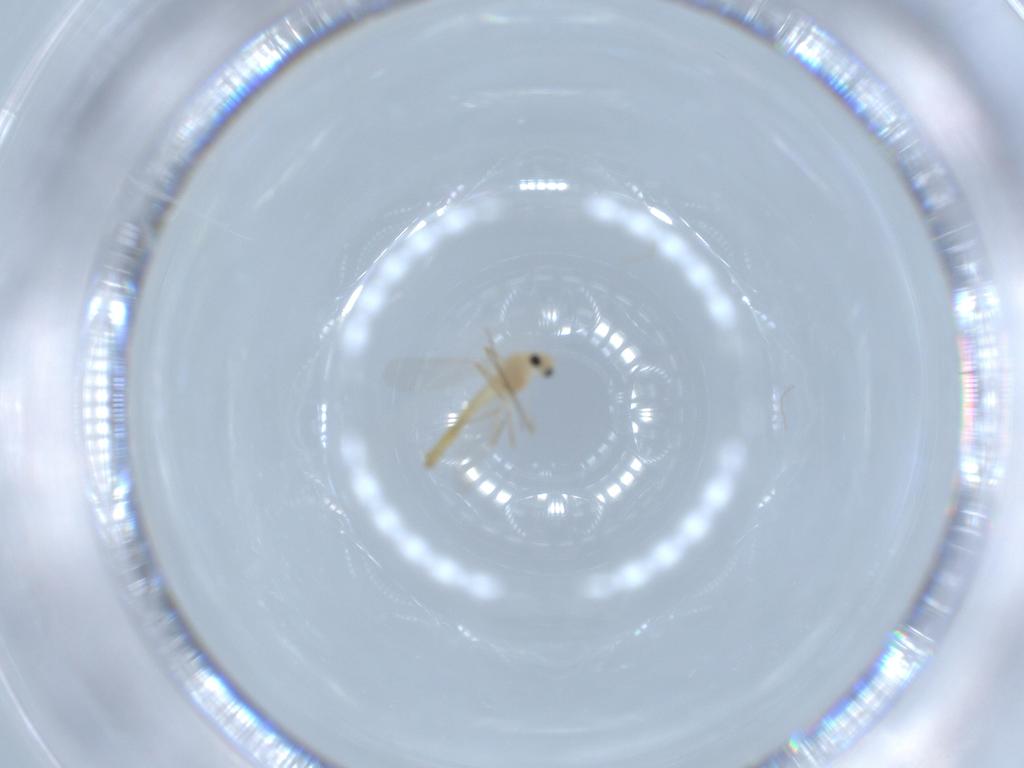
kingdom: Animalia
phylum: Arthropoda
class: Insecta
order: Diptera
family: Chironomidae
